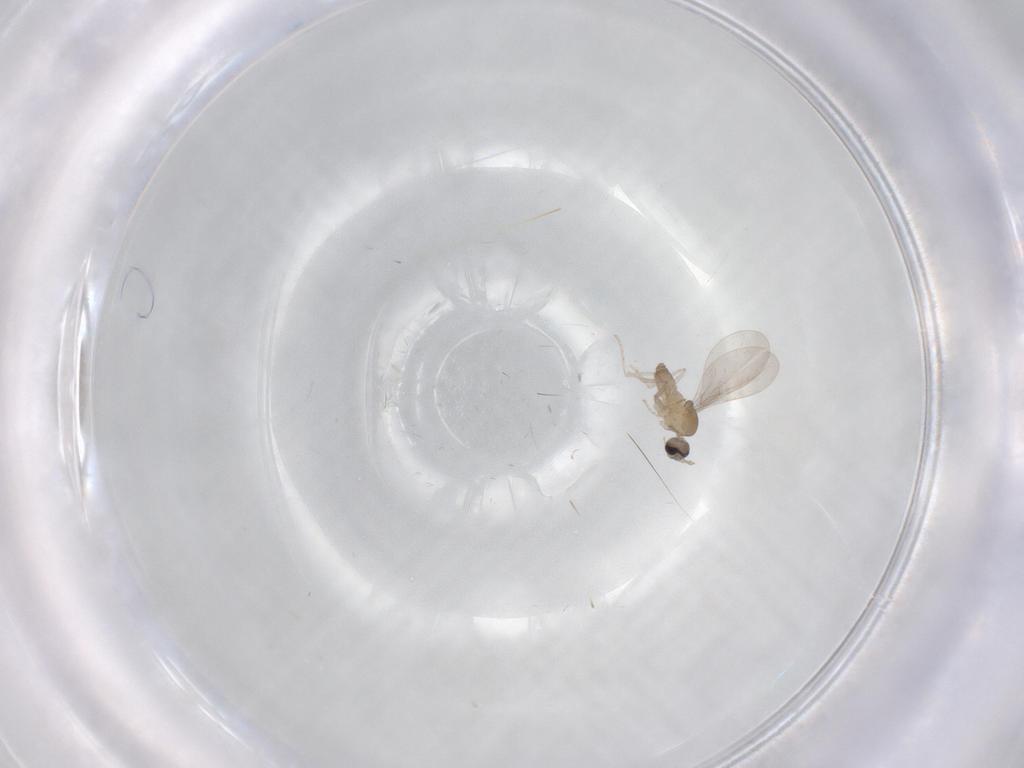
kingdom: Animalia
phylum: Arthropoda
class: Insecta
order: Diptera
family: Cecidomyiidae
